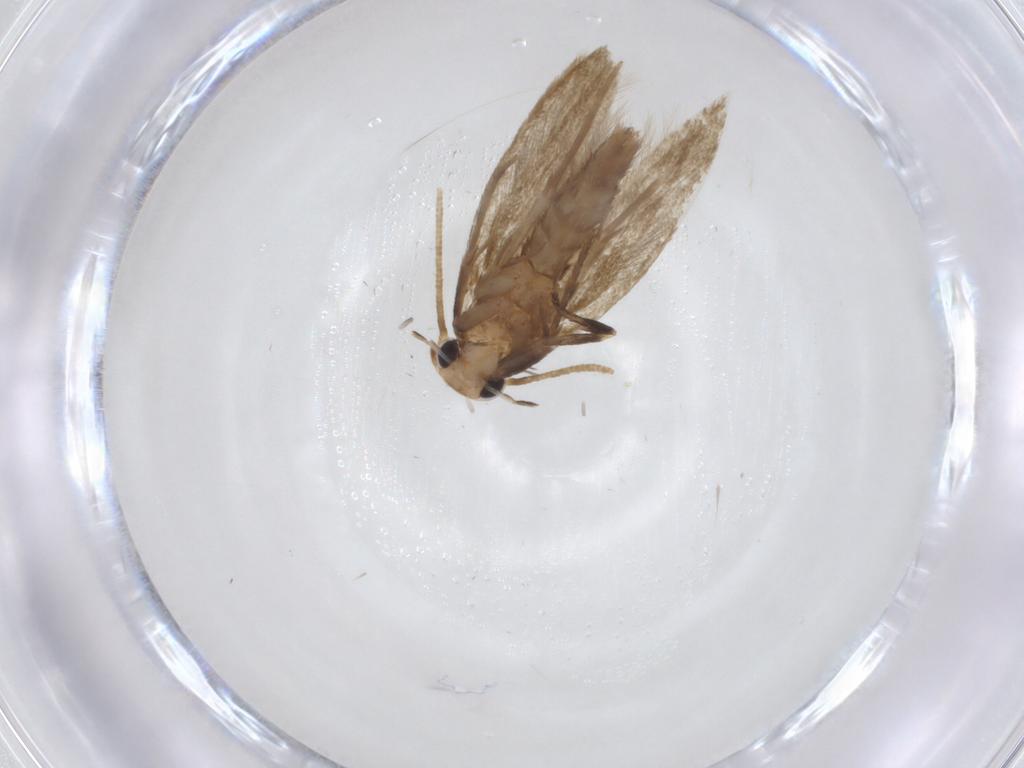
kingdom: Animalia
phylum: Arthropoda
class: Insecta
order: Lepidoptera
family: Tineidae
